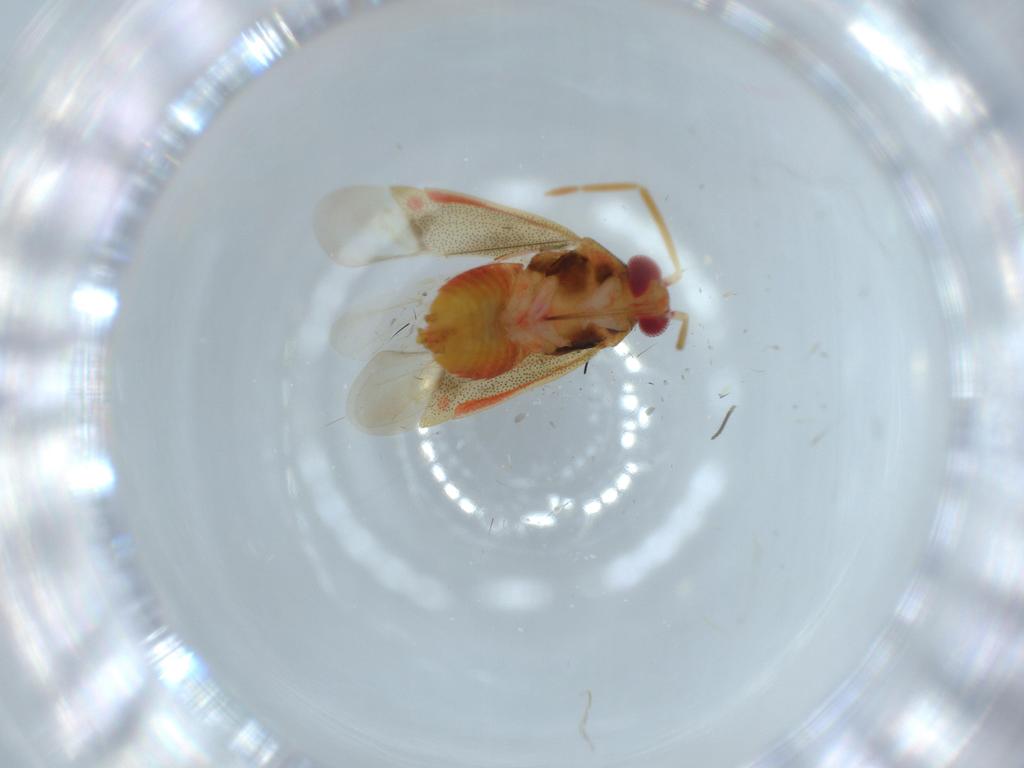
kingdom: Animalia
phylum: Arthropoda
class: Insecta
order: Hemiptera
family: Miridae
